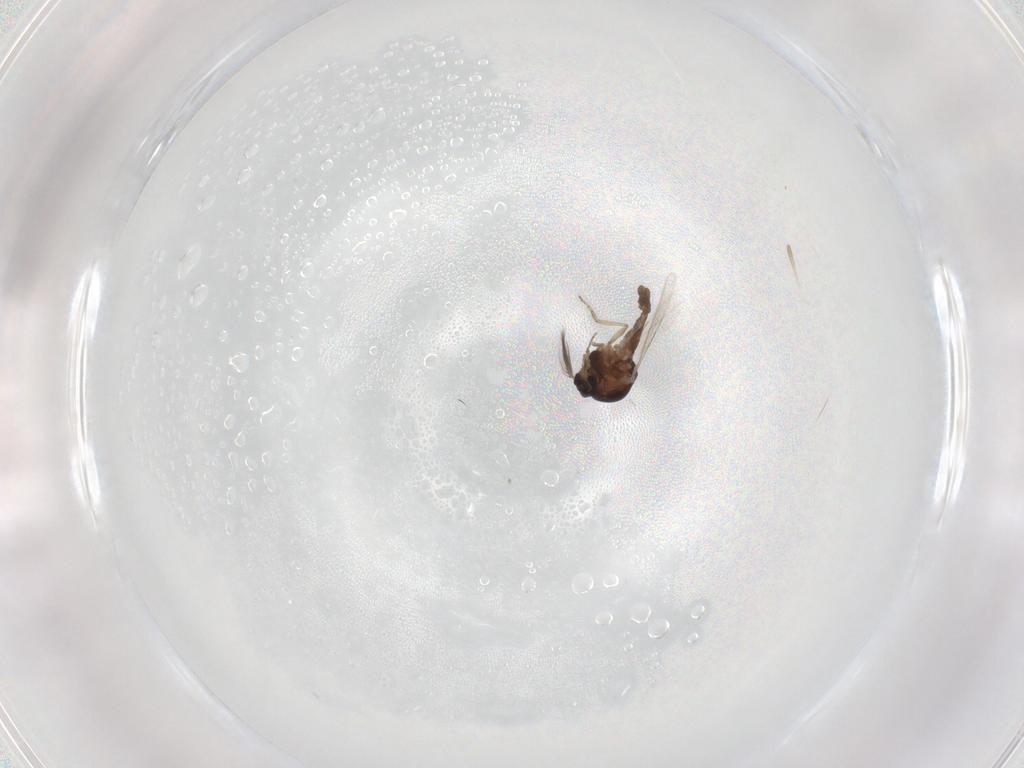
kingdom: Animalia
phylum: Arthropoda
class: Insecta
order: Diptera
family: Ceratopogonidae
